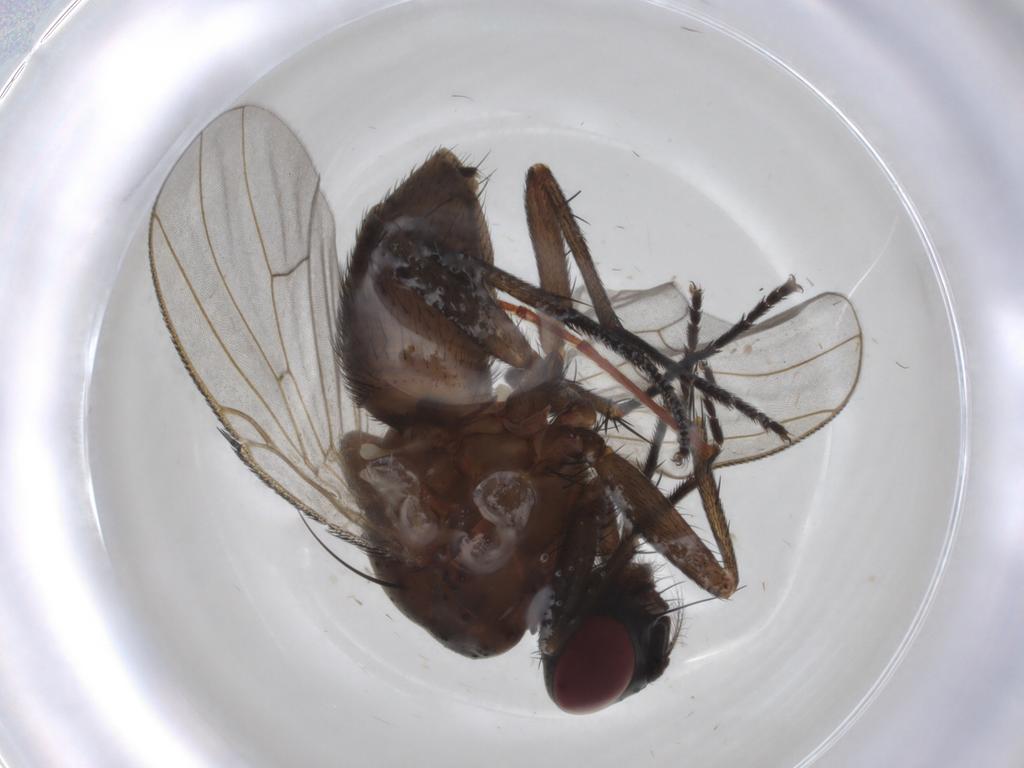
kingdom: Animalia
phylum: Arthropoda
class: Insecta
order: Diptera
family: Muscidae
